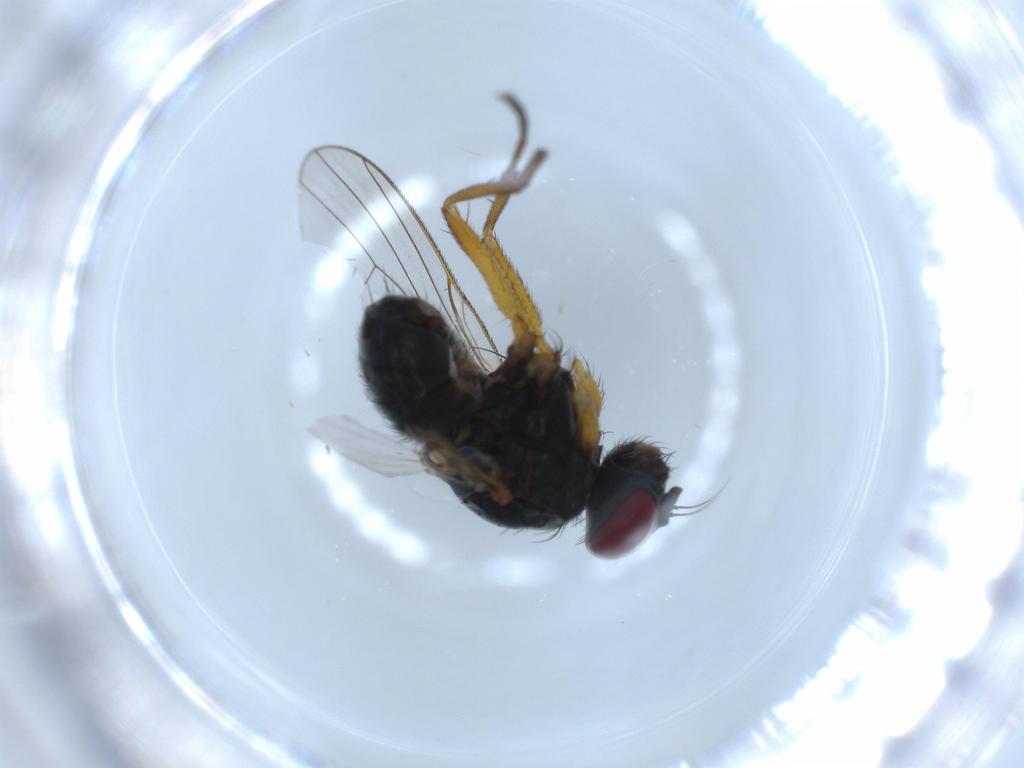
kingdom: Animalia
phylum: Arthropoda
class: Insecta
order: Diptera
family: Muscidae
